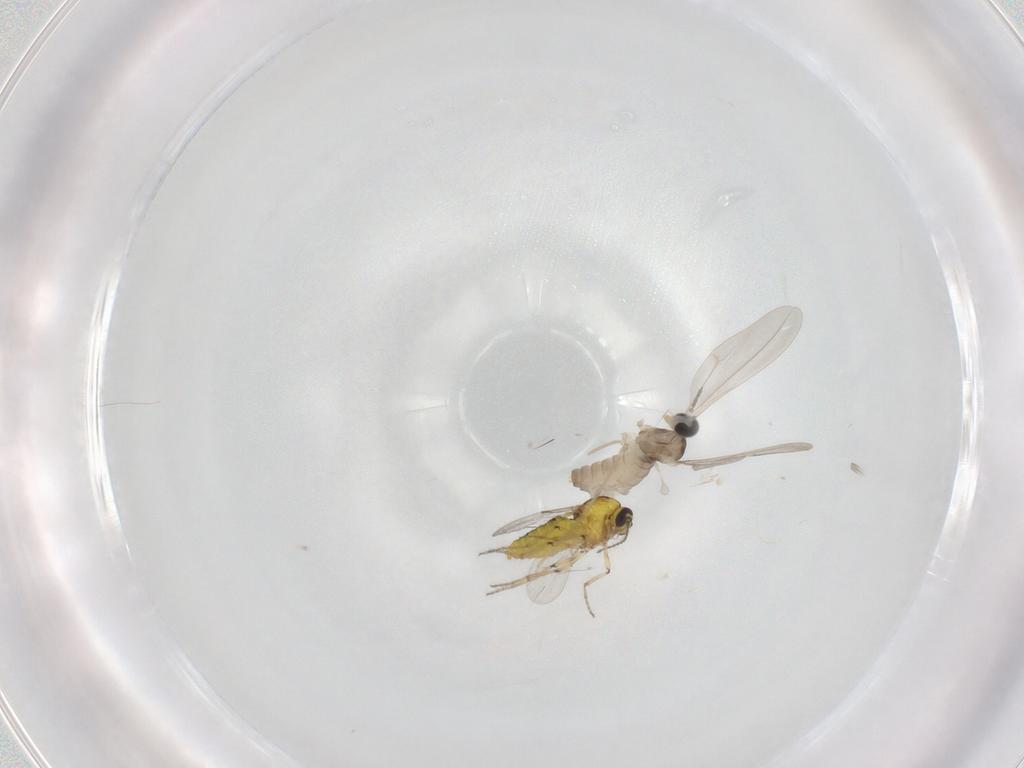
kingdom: Animalia
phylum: Arthropoda
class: Insecta
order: Diptera
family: Ceratopogonidae
